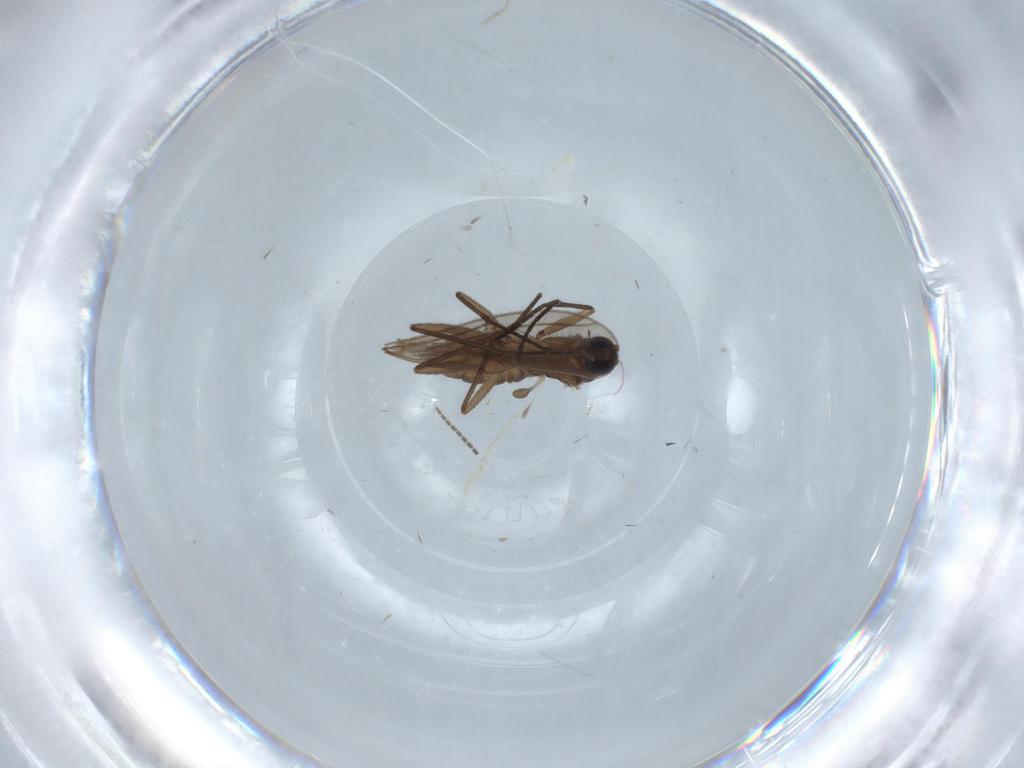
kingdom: Animalia
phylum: Arthropoda
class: Insecta
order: Diptera
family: Sciaridae
